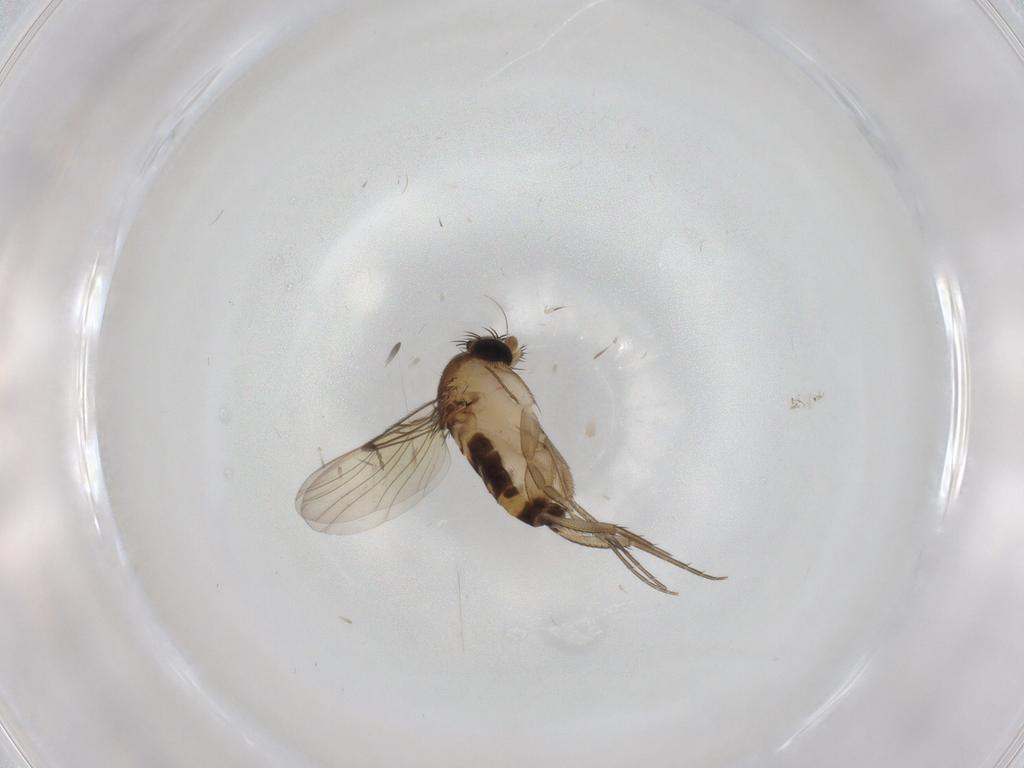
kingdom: Animalia
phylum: Arthropoda
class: Insecta
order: Diptera
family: Phoridae
